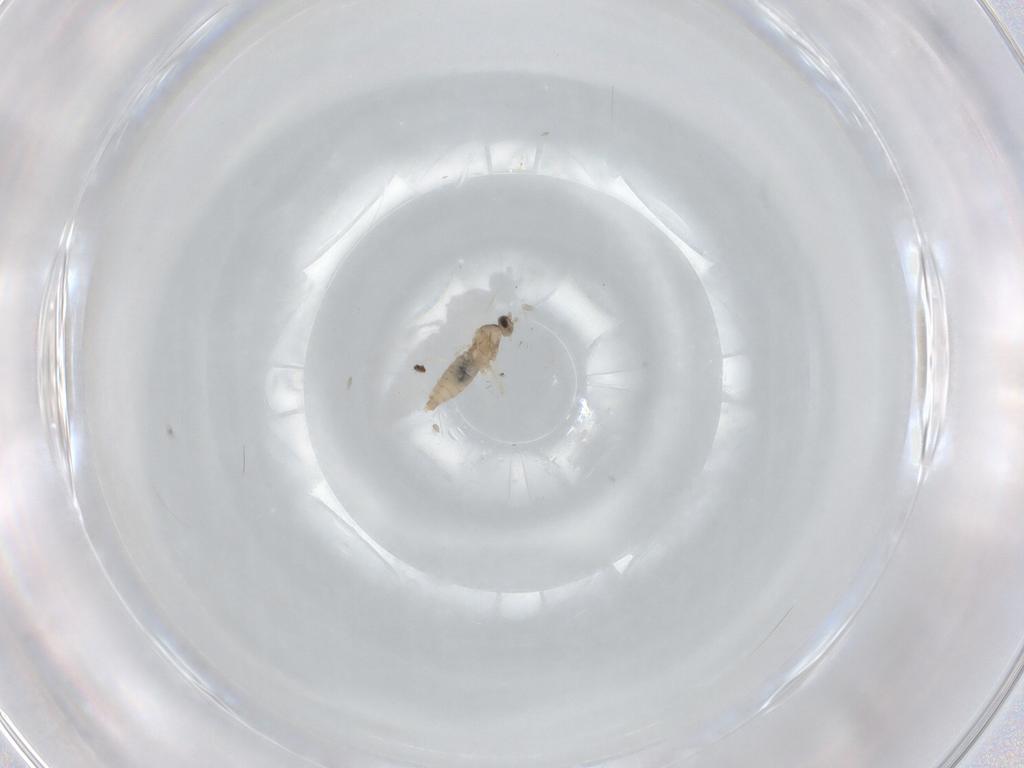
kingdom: Animalia
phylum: Arthropoda
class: Insecta
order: Diptera
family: Cecidomyiidae
